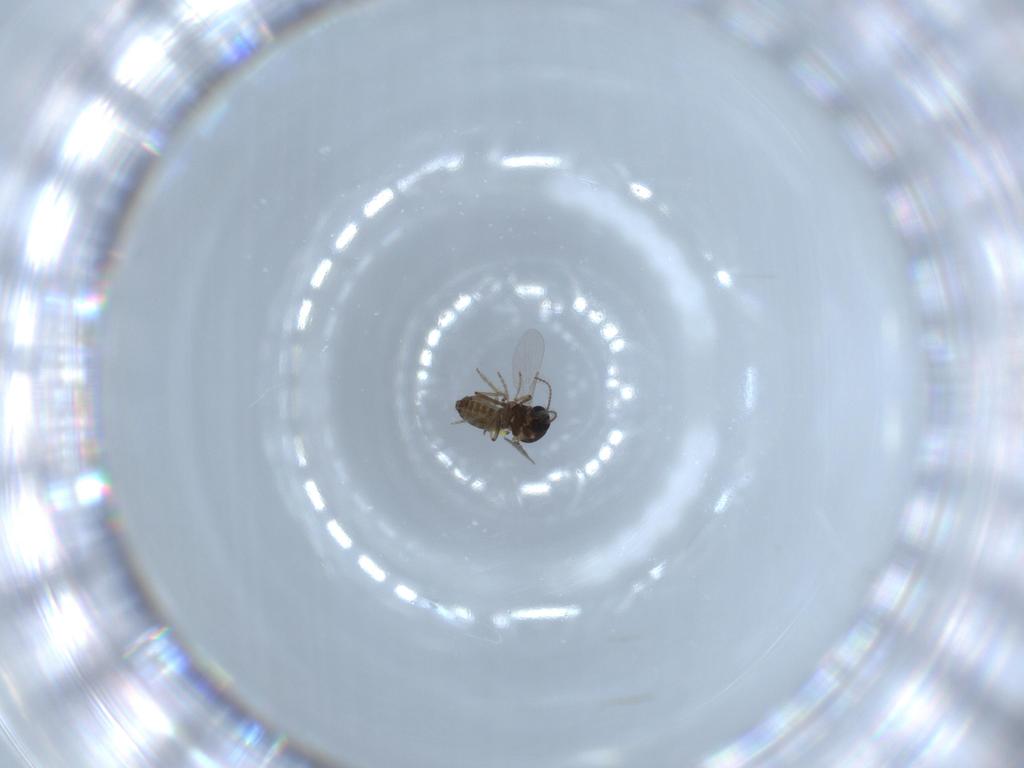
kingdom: Animalia
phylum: Arthropoda
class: Insecta
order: Diptera
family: Ceratopogonidae
